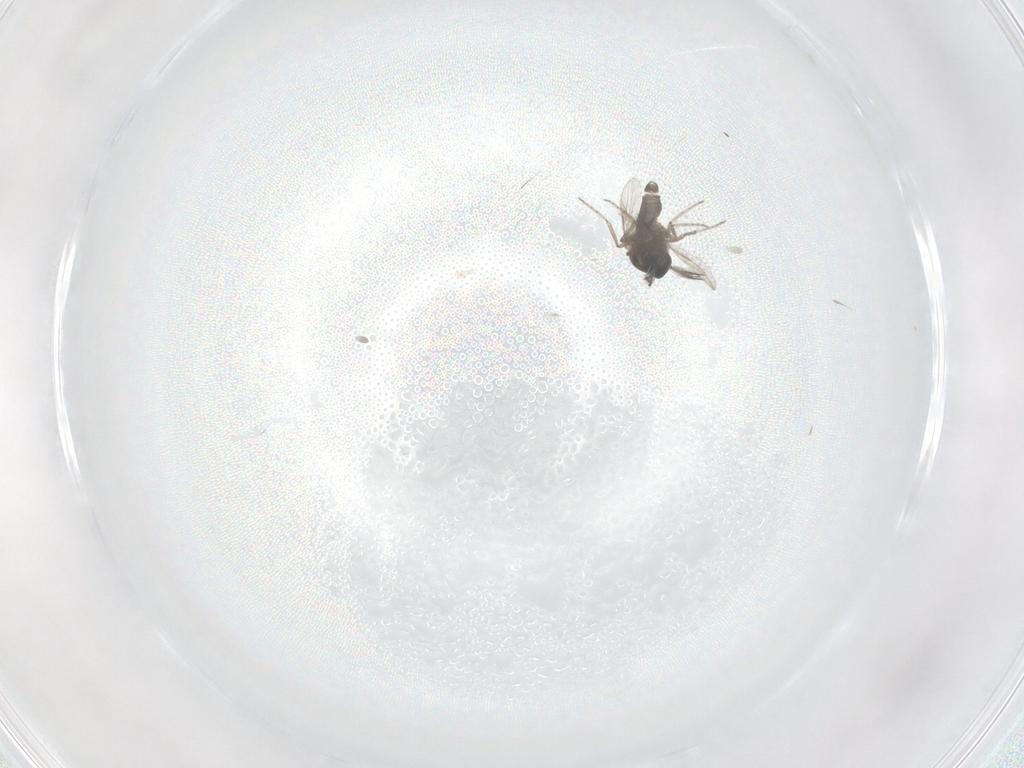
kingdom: Animalia
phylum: Arthropoda
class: Insecta
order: Diptera
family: Ceratopogonidae
